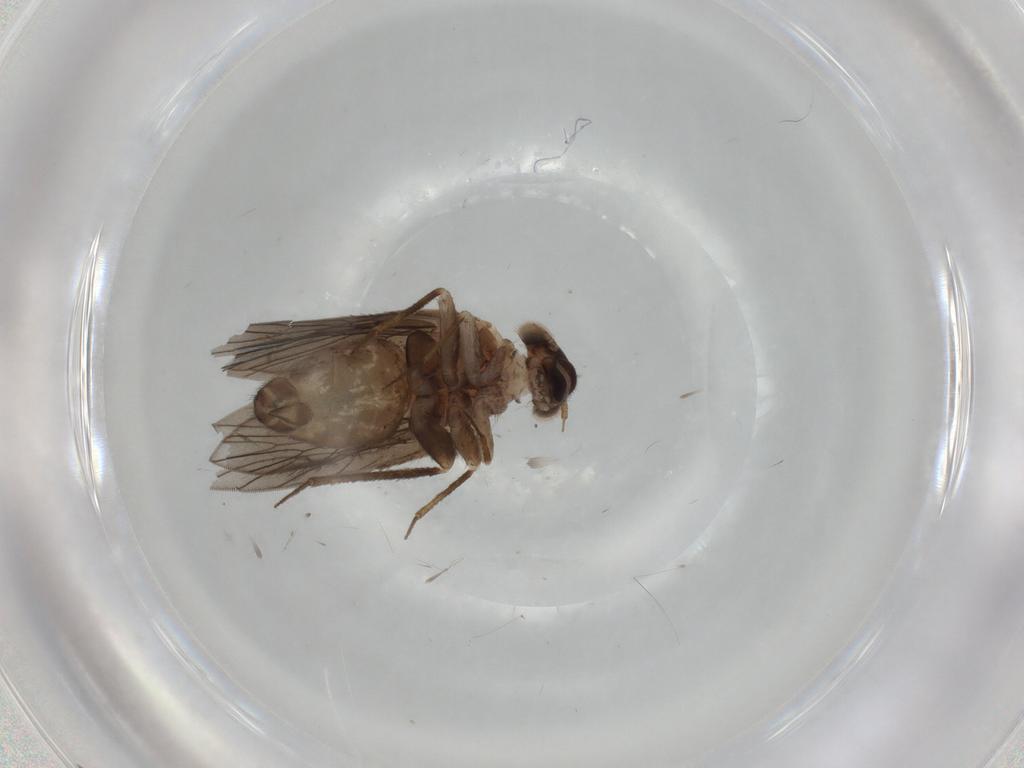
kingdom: Animalia
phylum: Arthropoda
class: Insecta
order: Psocodea
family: Lepidopsocidae
